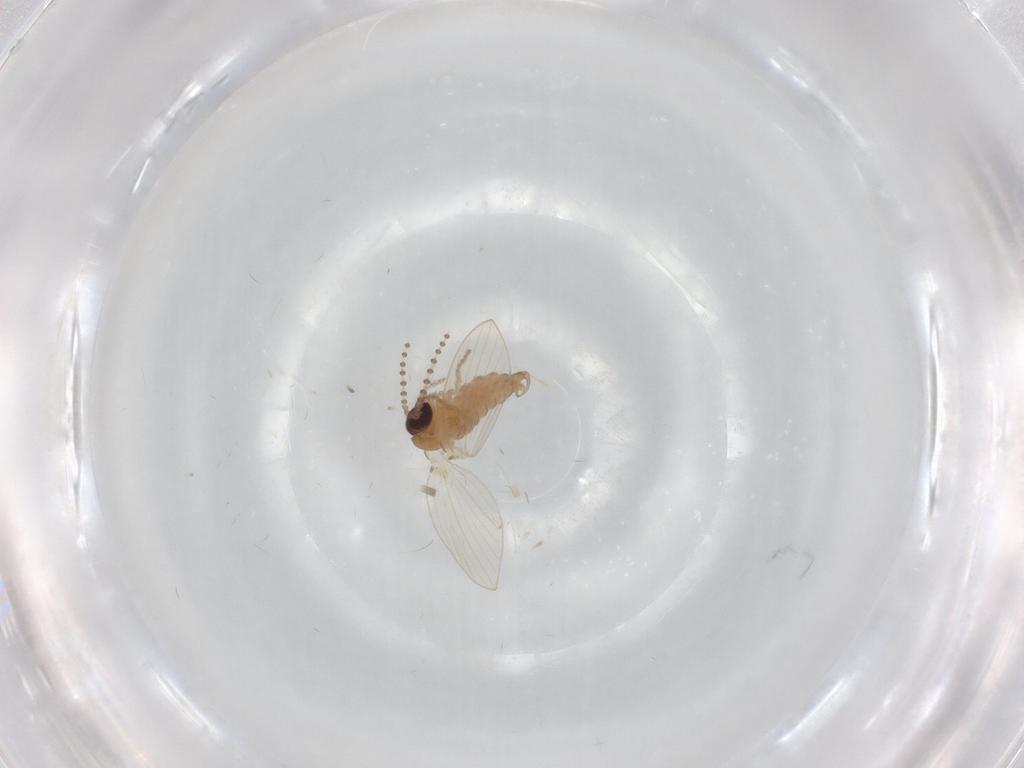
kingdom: Animalia
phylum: Arthropoda
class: Insecta
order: Diptera
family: Psychodidae
